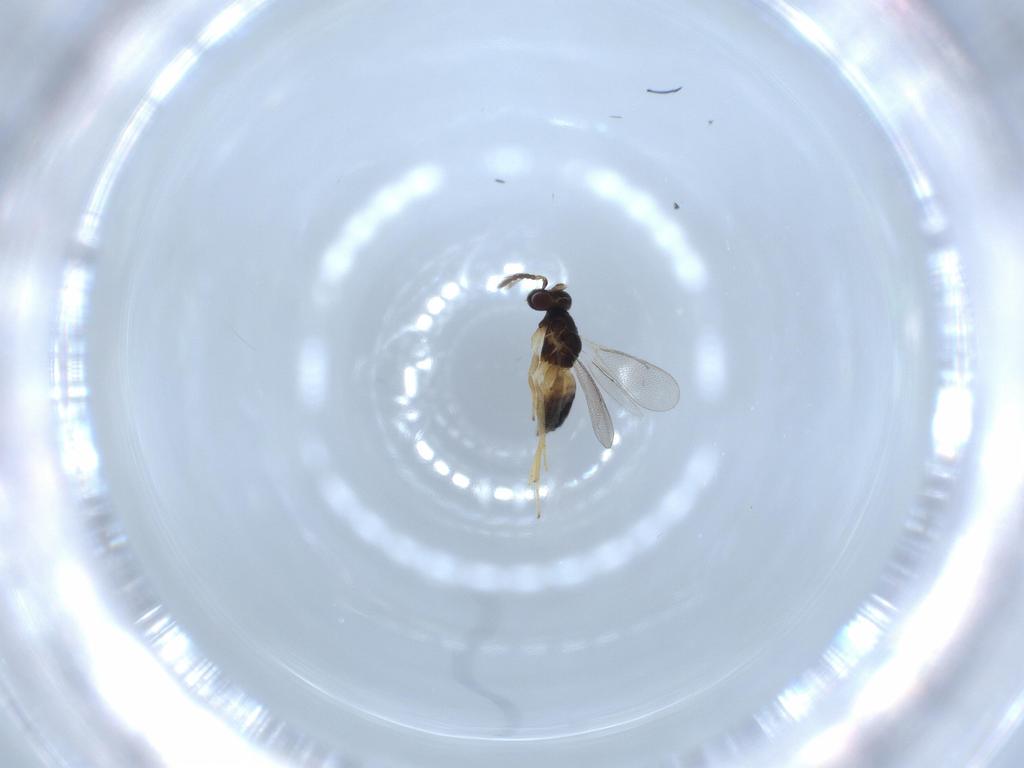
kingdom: Animalia
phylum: Arthropoda
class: Insecta
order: Hymenoptera
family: Eulophidae
